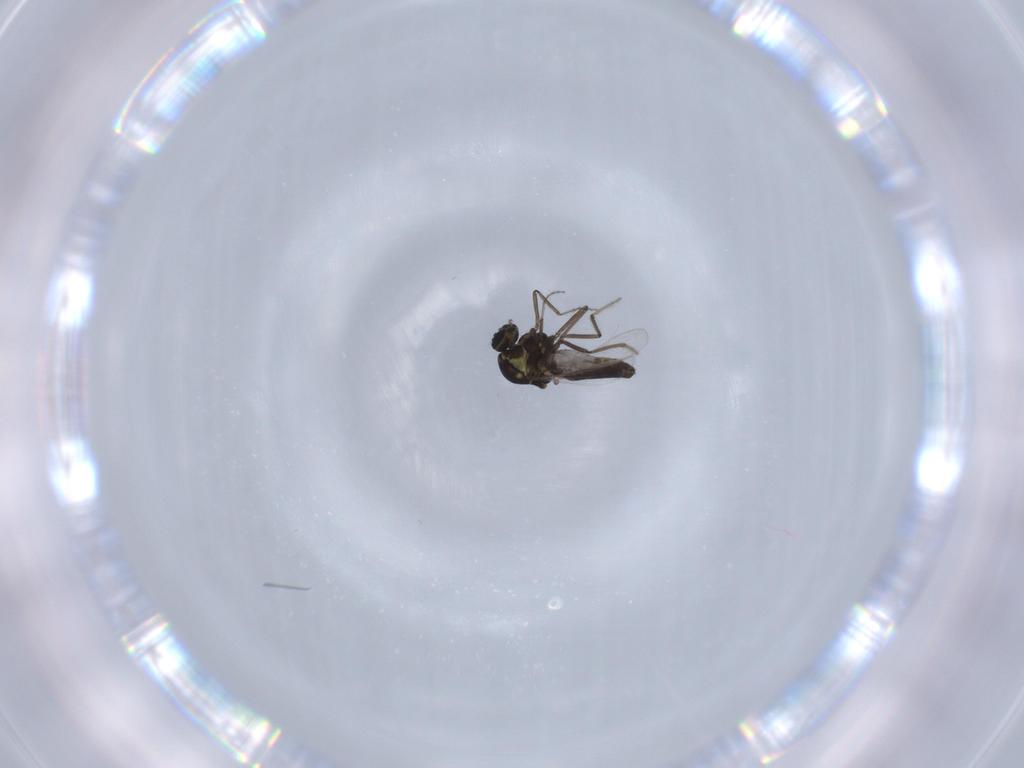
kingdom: Animalia
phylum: Arthropoda
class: Insecta
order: Diptera
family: Ceratopogonidae
